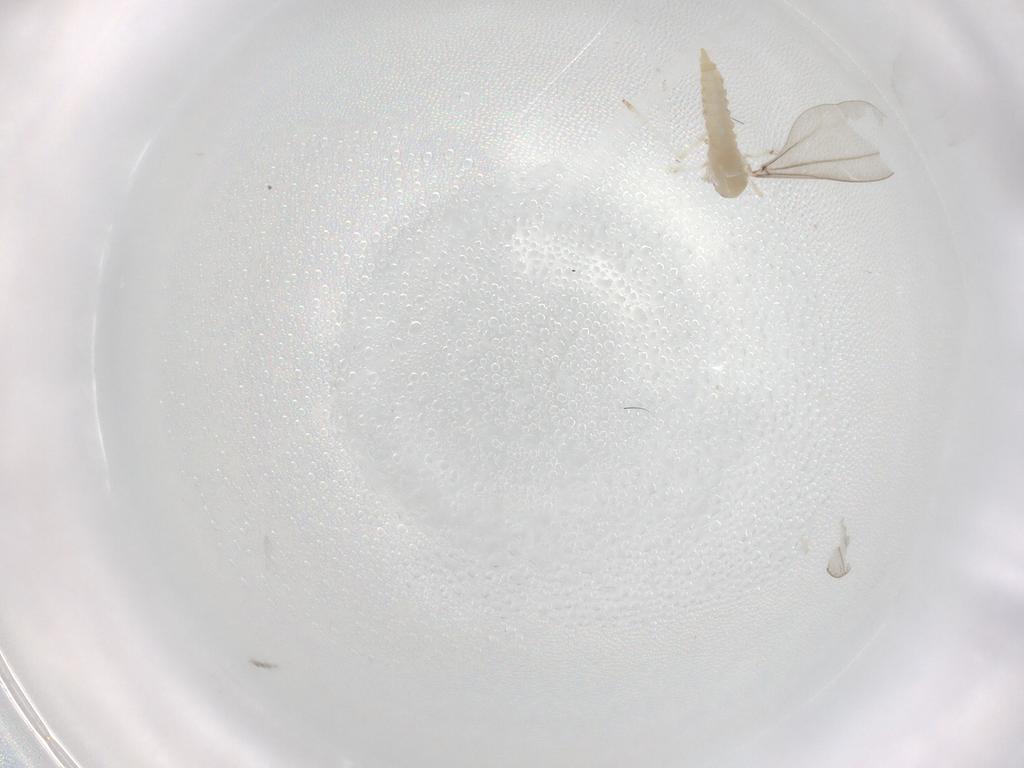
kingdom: Animalia
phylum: Arthropoda
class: Insecta
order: Diptera
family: Cecidomyiidae
